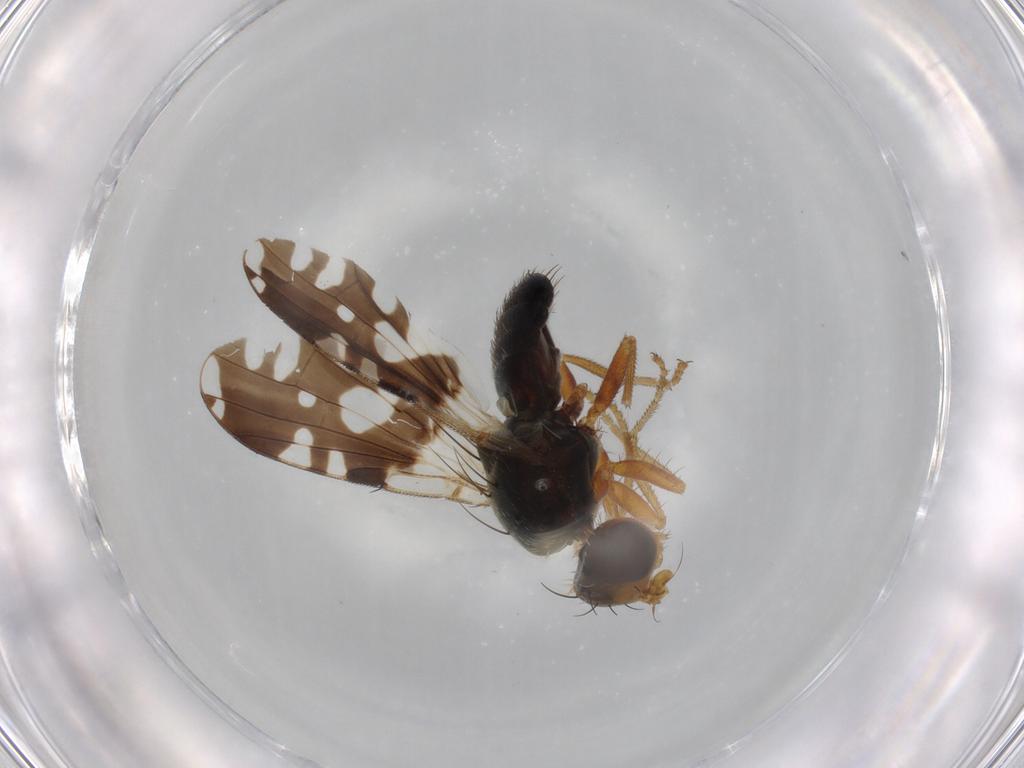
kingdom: Animalia
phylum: Arthropoda
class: Insecta
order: Diptera
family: Tephritidae
